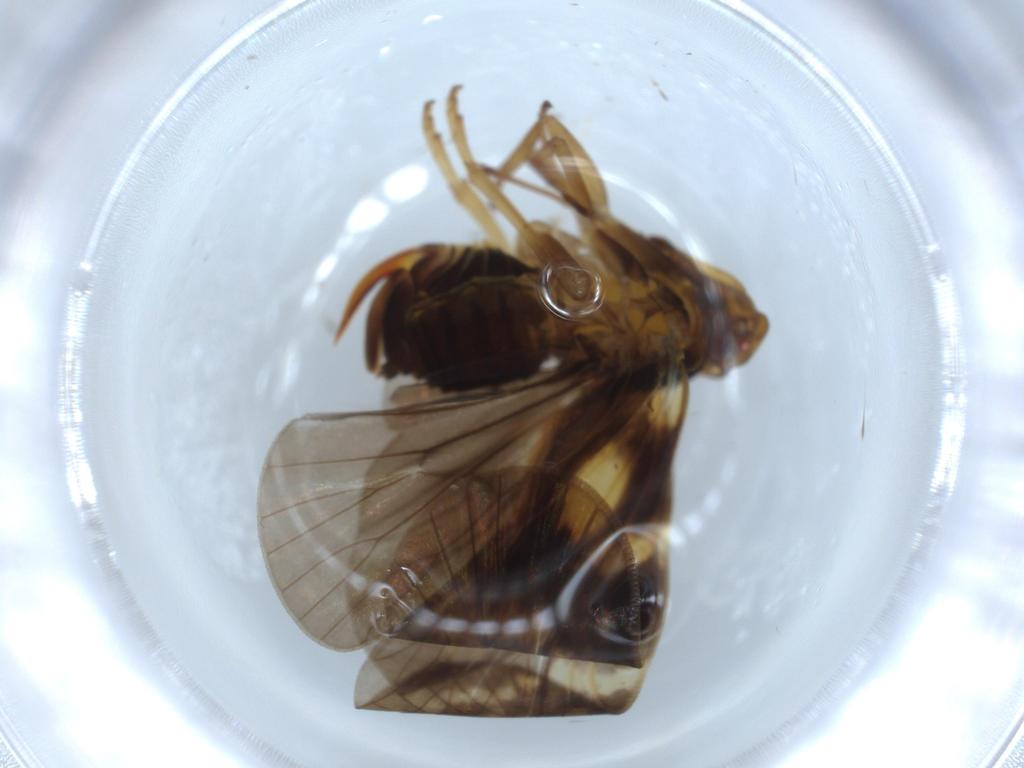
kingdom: Animalia
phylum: Arthropoda
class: Insecta
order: Hemiptera
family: Cixiidae
